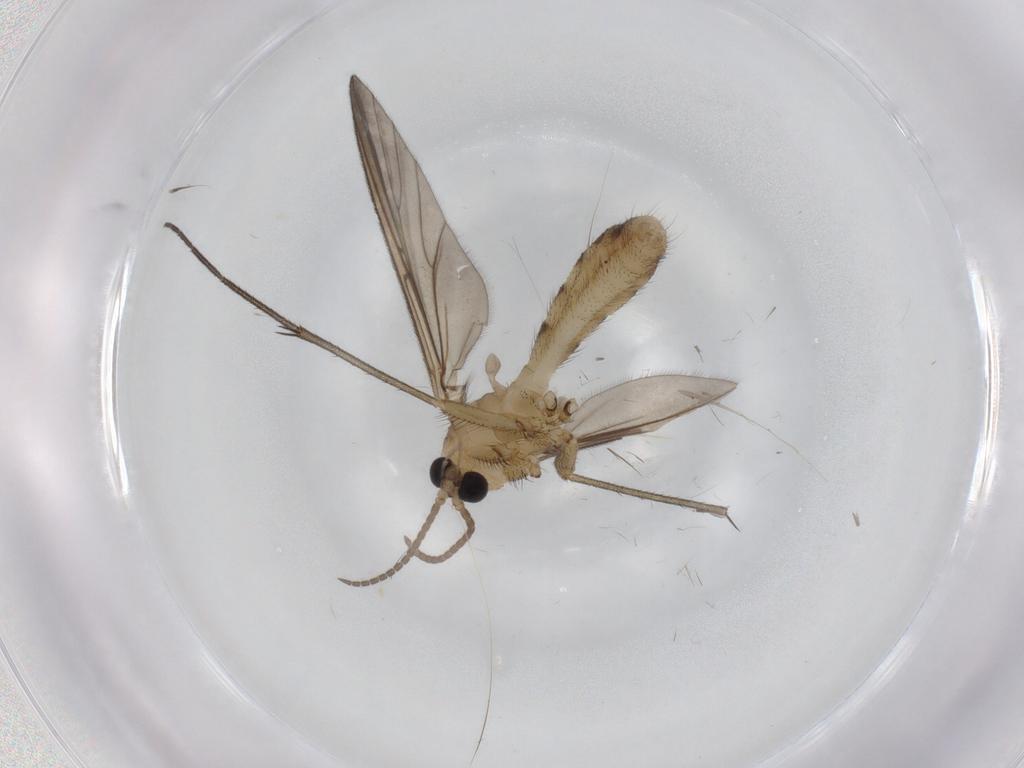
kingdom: Animalia
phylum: Arthropoda
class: Insecta
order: Diptera
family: Mycetophilidae
